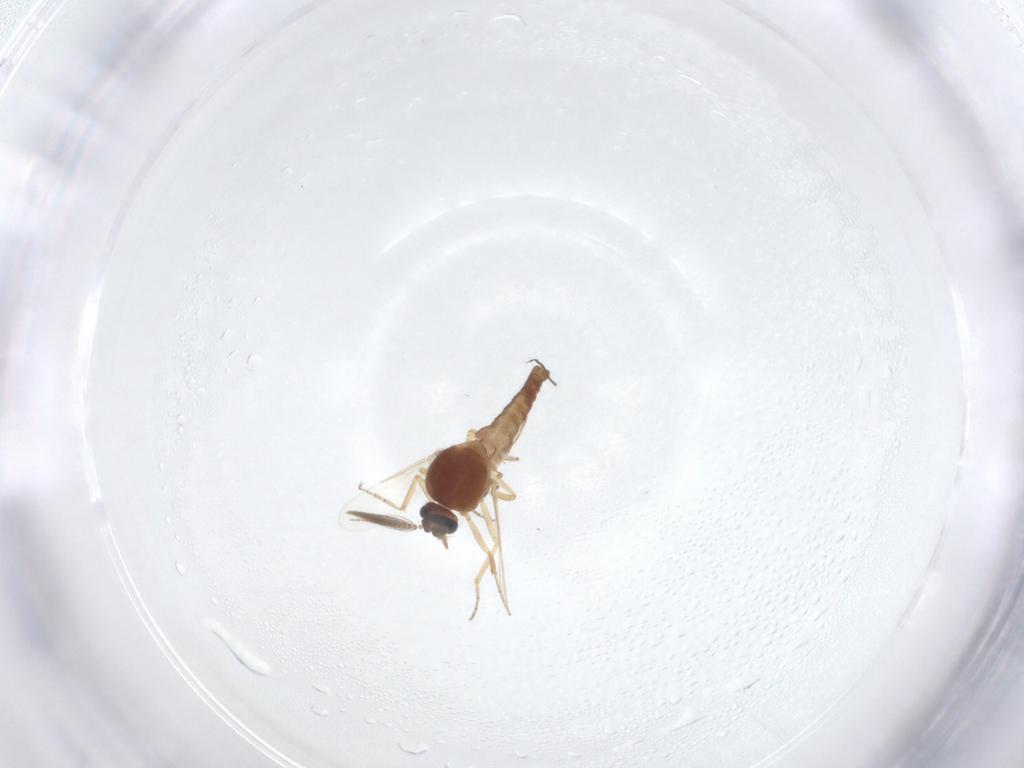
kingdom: Animalia
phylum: Arthropoda
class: Insecta
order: Diptera
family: Ceratopogonidae
